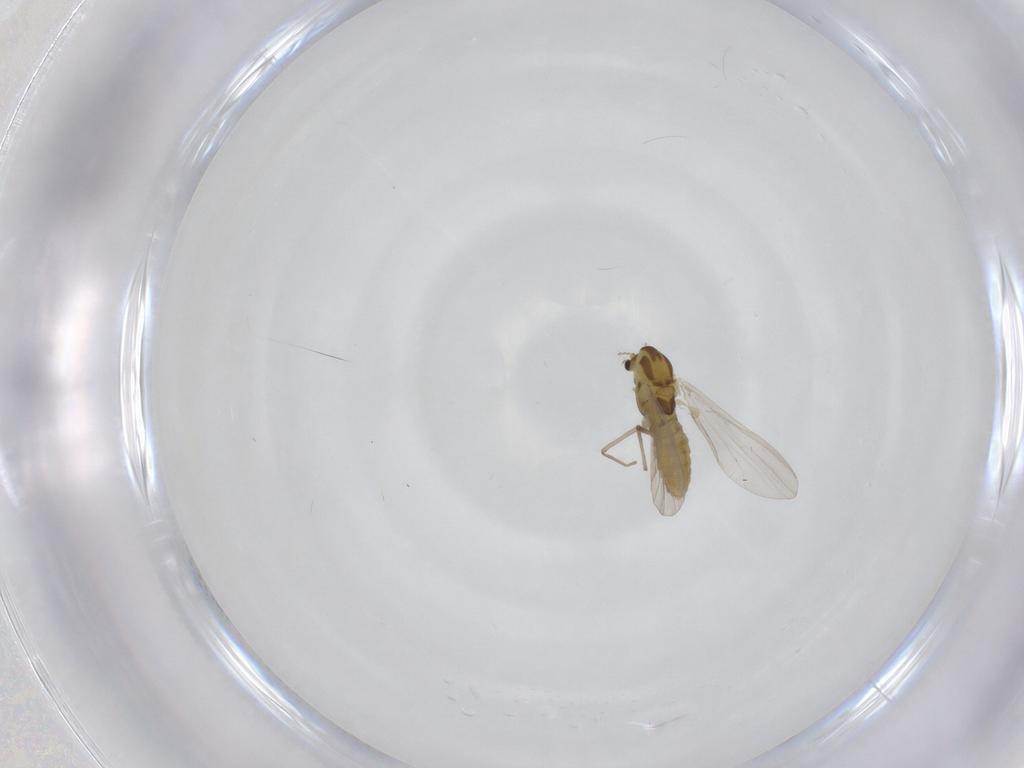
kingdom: Animalia
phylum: Arthropoda
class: Insecta
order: Diptera
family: Chironomidae
